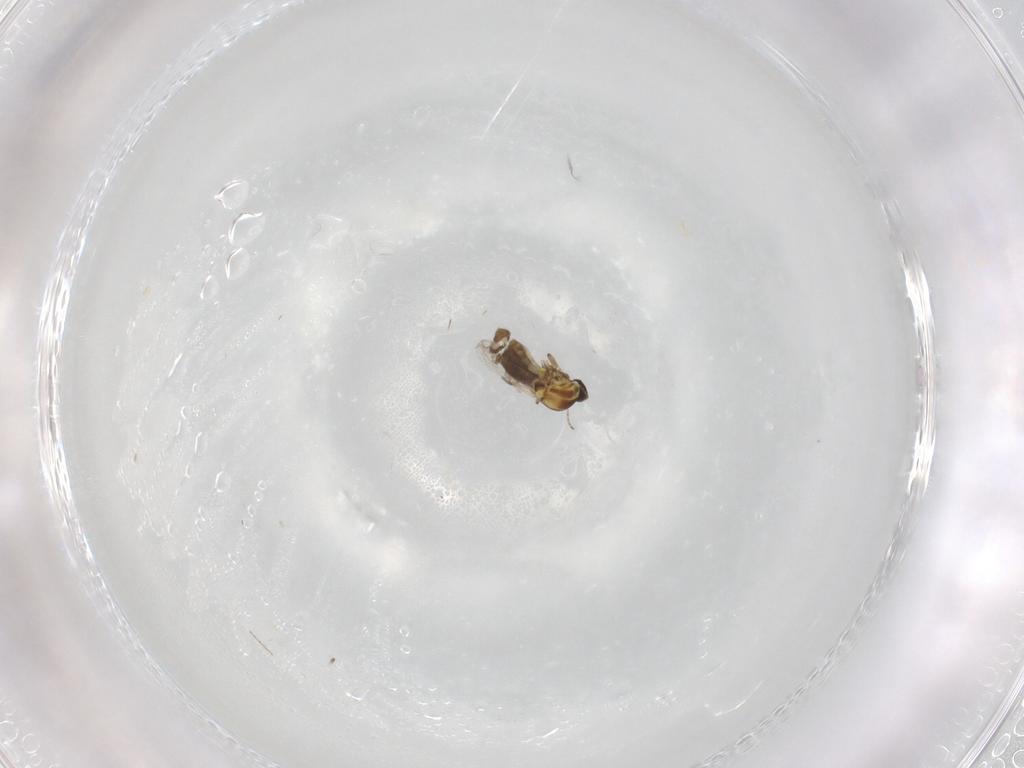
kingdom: Animalia
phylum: Arthropoda
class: Insecta
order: Diptera
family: Ceratopogonidae
